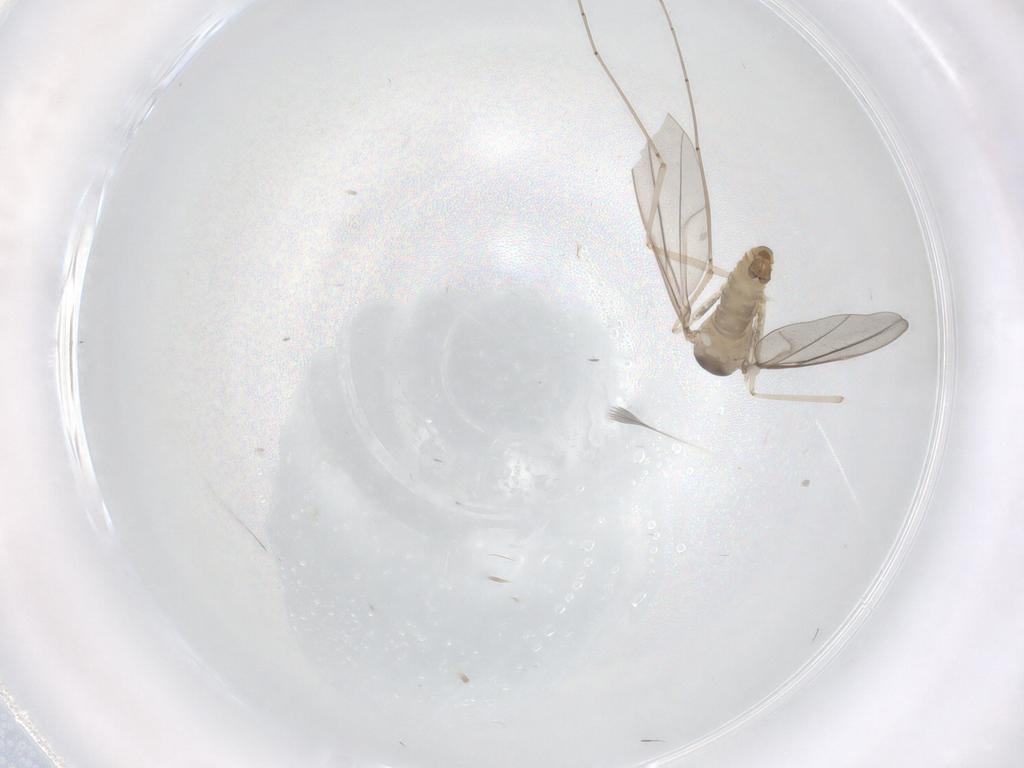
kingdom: Animalia
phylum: Arthropoda
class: Insecta
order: Diptera
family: Cecidomyiidae
